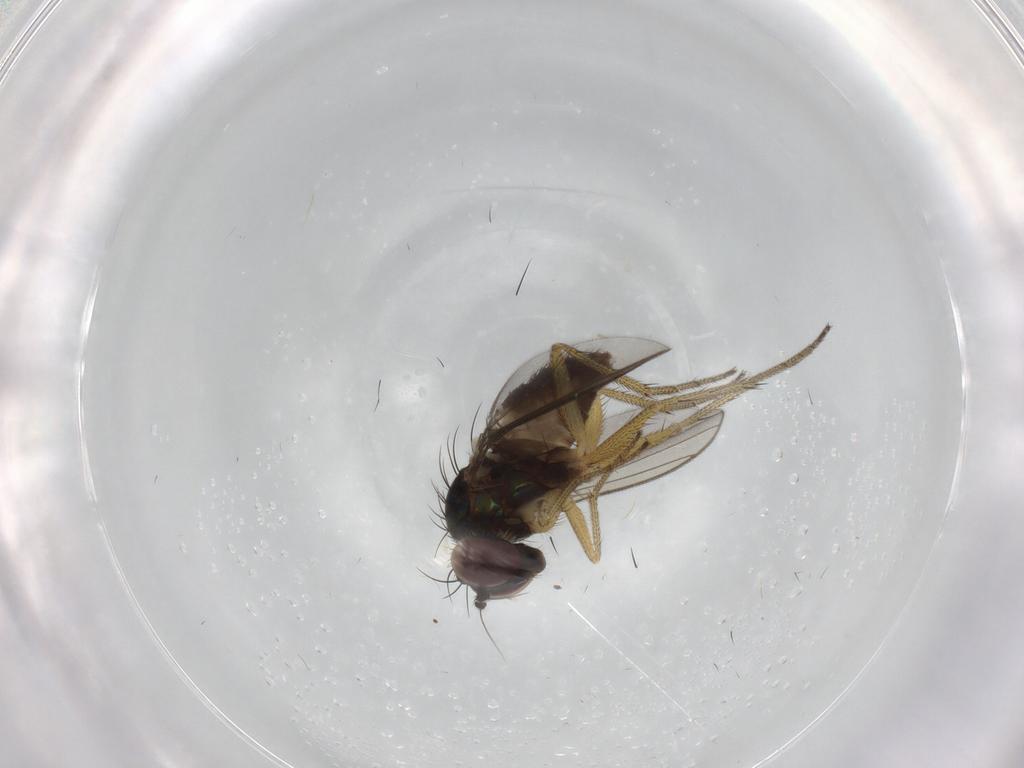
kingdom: Animalia
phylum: Arthropoda
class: Insecta
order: Diptera
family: Dolichopodidae
